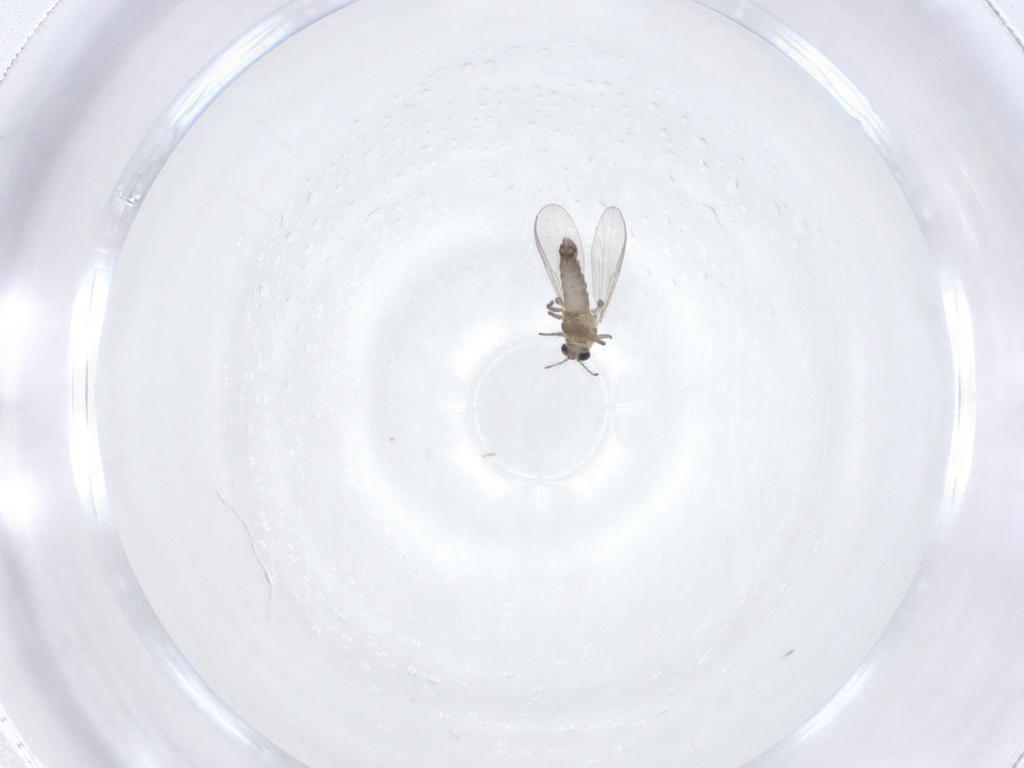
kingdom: Animalia
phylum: Arthropoda
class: Insecta
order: Diptera
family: Chironomidae
